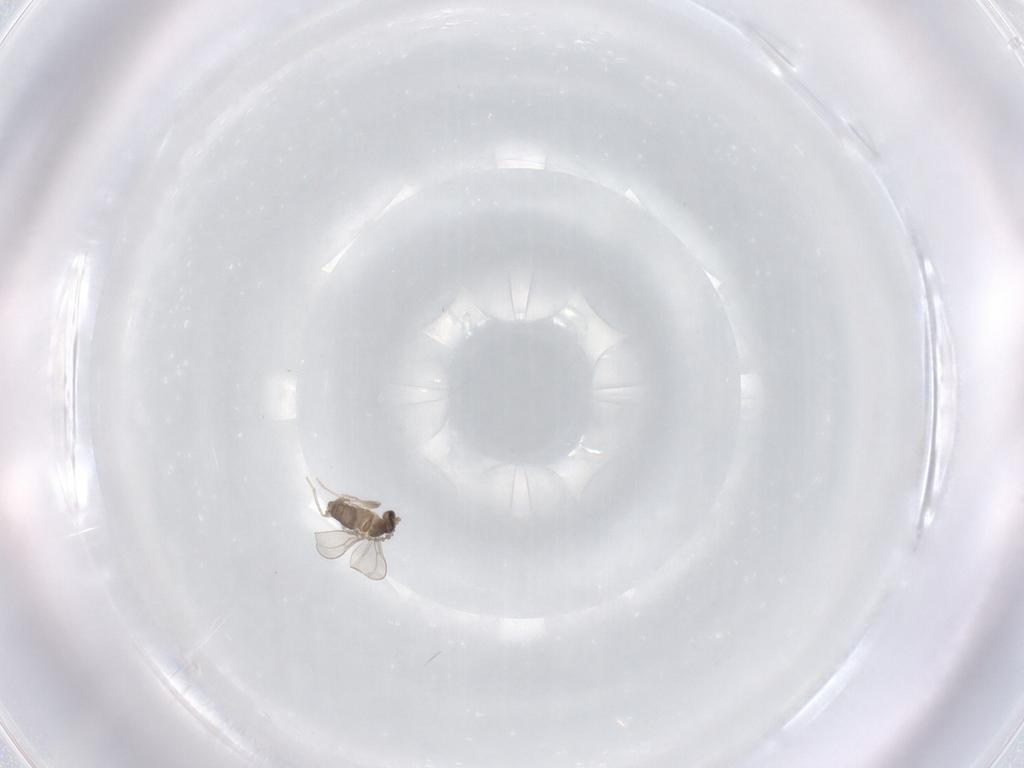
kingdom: Animalia
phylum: Arthropoda
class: Insecta
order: Diptera
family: Cecidomyiidae
